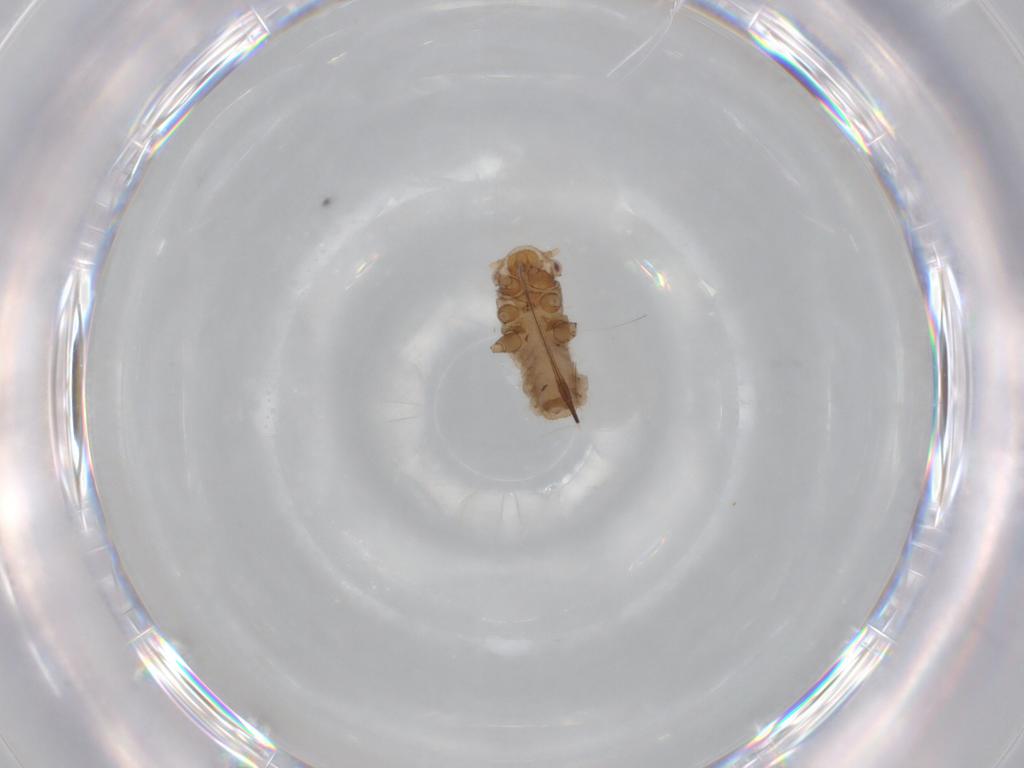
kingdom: Animalia
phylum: Arthropoda
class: Insecta
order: Hemiptera
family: Aphididae
